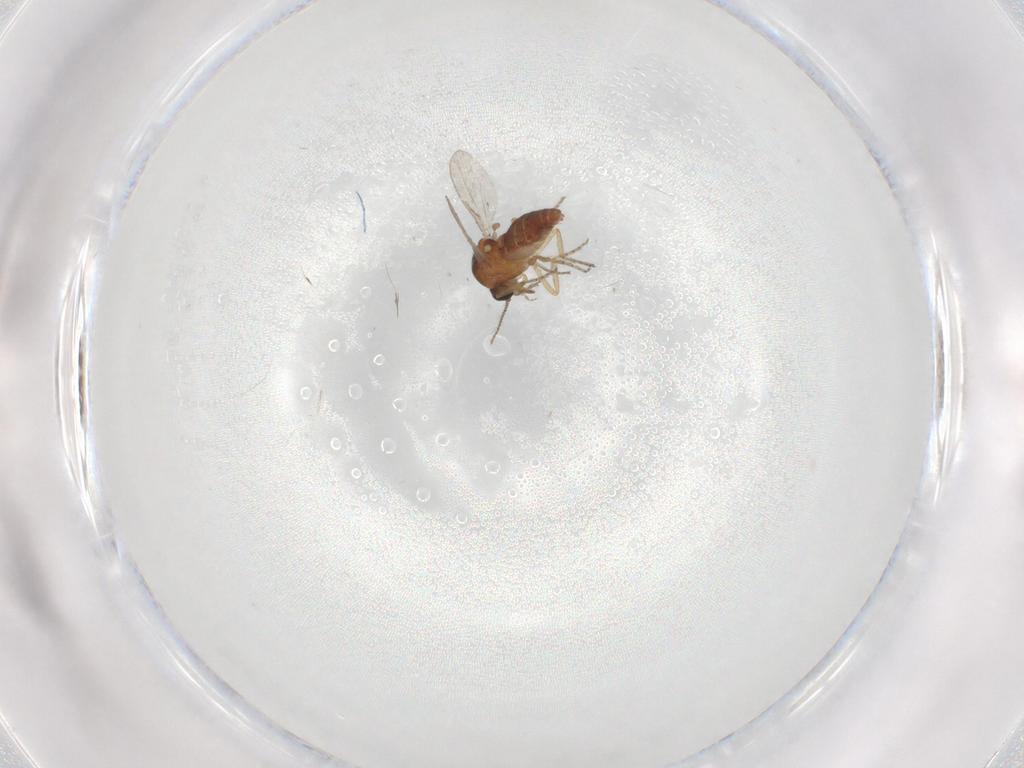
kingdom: Animalia
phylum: Arthropoda
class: Insecta
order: Diptera
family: Ceratopogonidae
